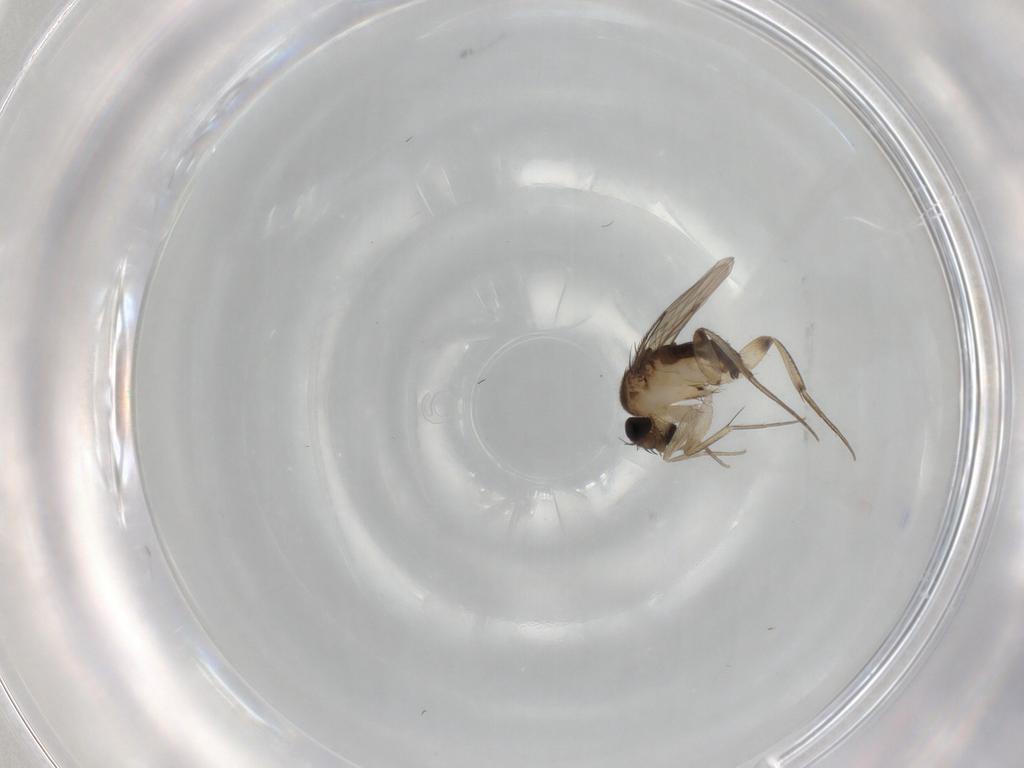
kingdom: Animalia
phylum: Arthropoda
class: Insecta
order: Diptera
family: Phoridae
